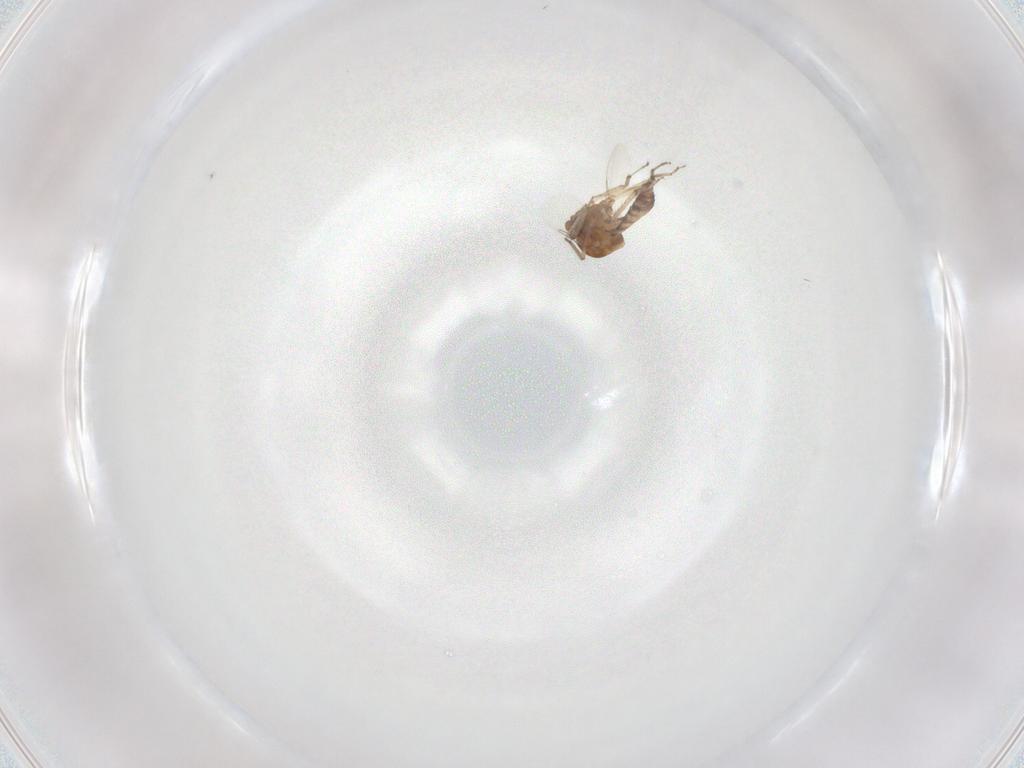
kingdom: Animalia
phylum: Arthropoda
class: Insecta
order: Diptera
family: Ceratopogonidae
